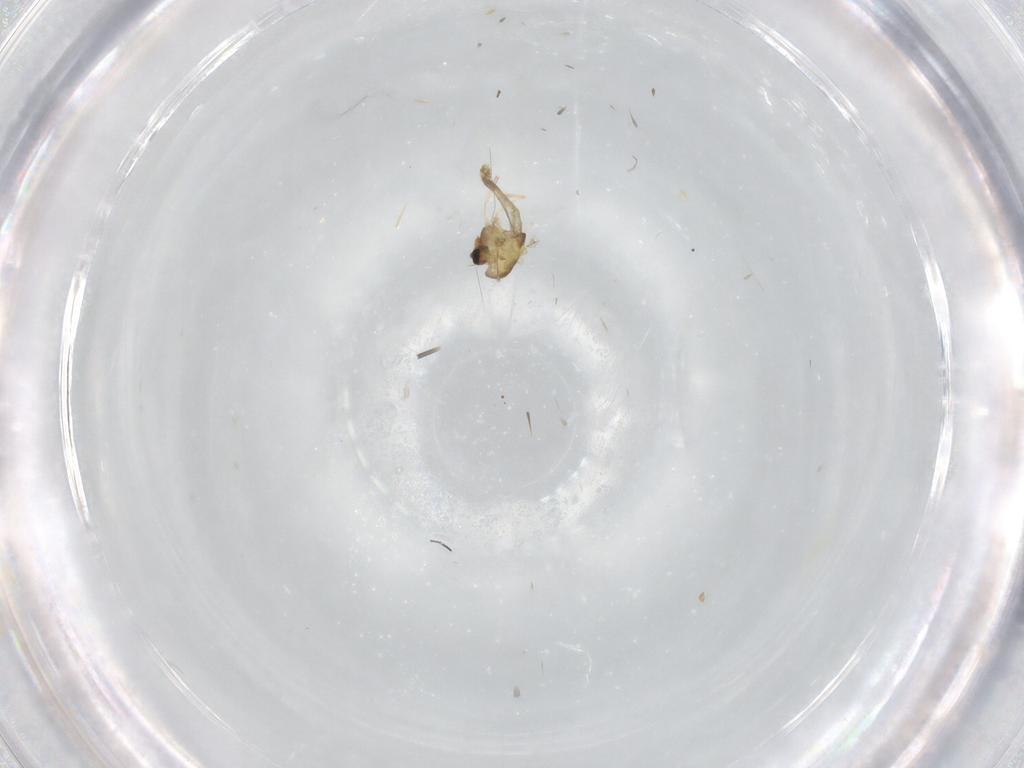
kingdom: Animalia
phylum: Arthropoda
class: Insecta
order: Diptera
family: Chironomidae
